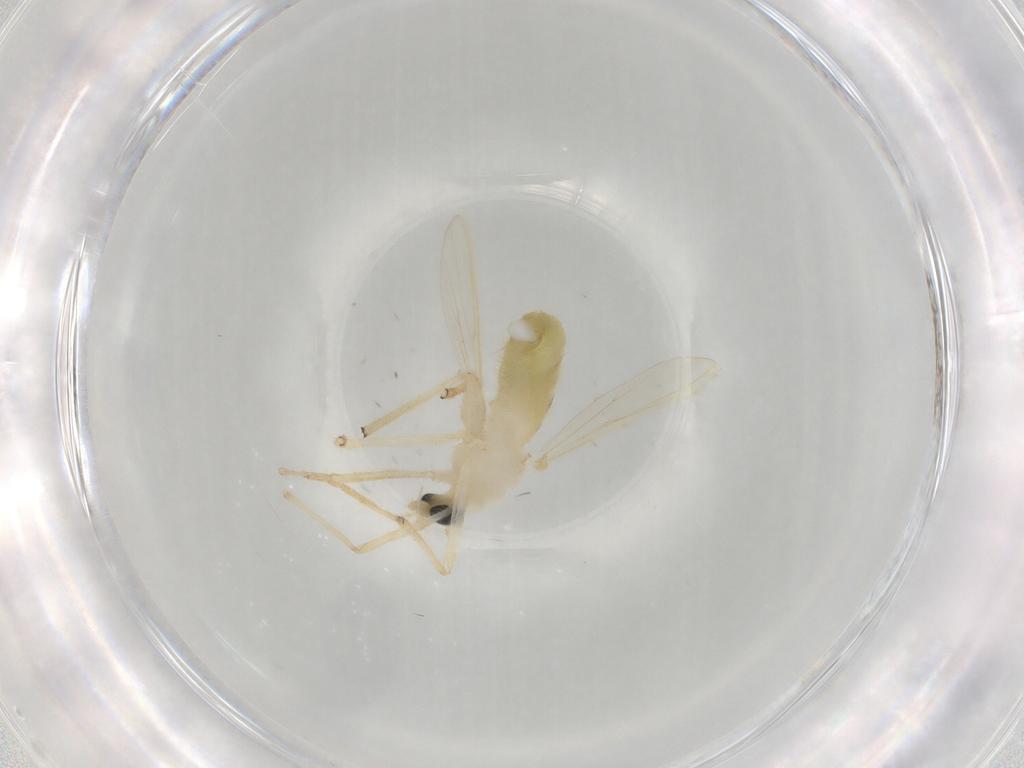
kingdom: Animalia
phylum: Arthropoda
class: Insecta
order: Diptera
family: Chironomidae
